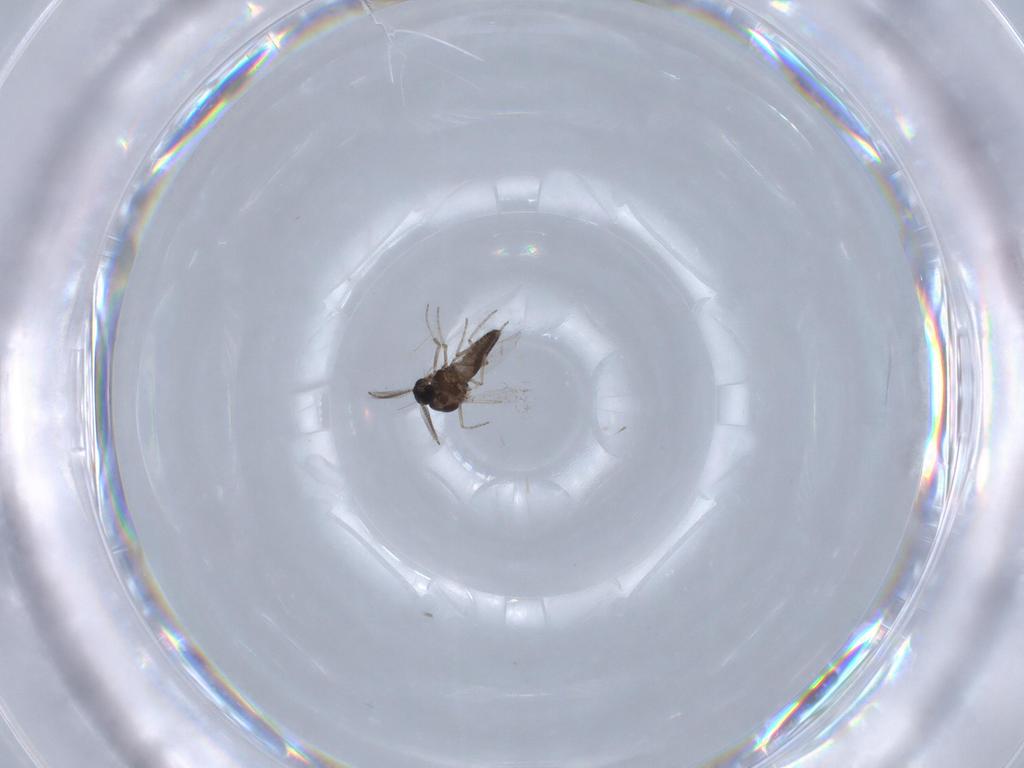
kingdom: Animalia
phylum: Arthropoda
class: Insecta
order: Diptera
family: Ceratopogonidae
